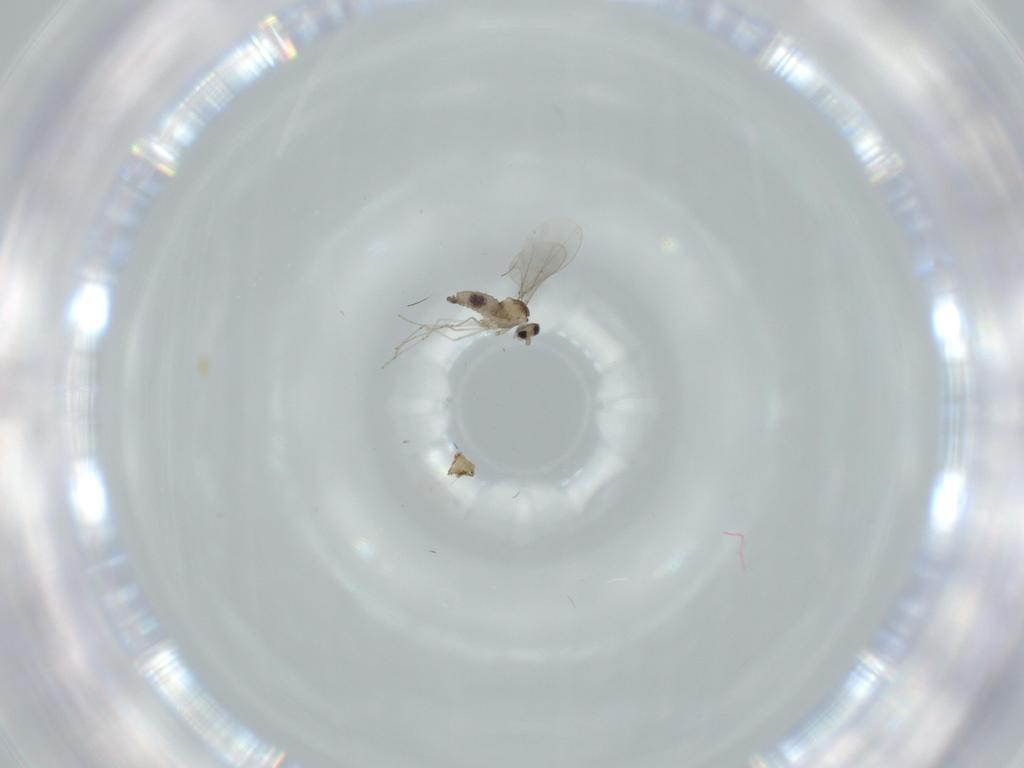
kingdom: Animalia
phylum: Arthropoda
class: Insecta
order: Diptera
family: Cecidomyiidae
